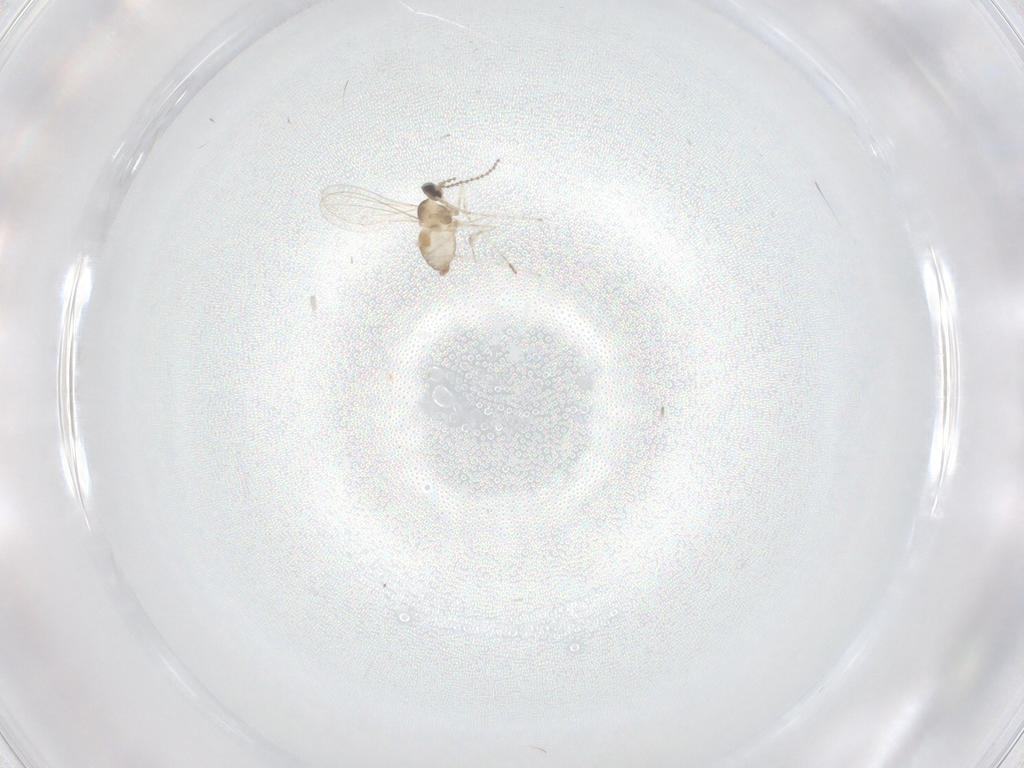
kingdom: Animalia
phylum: Arthropoda
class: Insecta
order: Diptera
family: Cecidomyiidae
